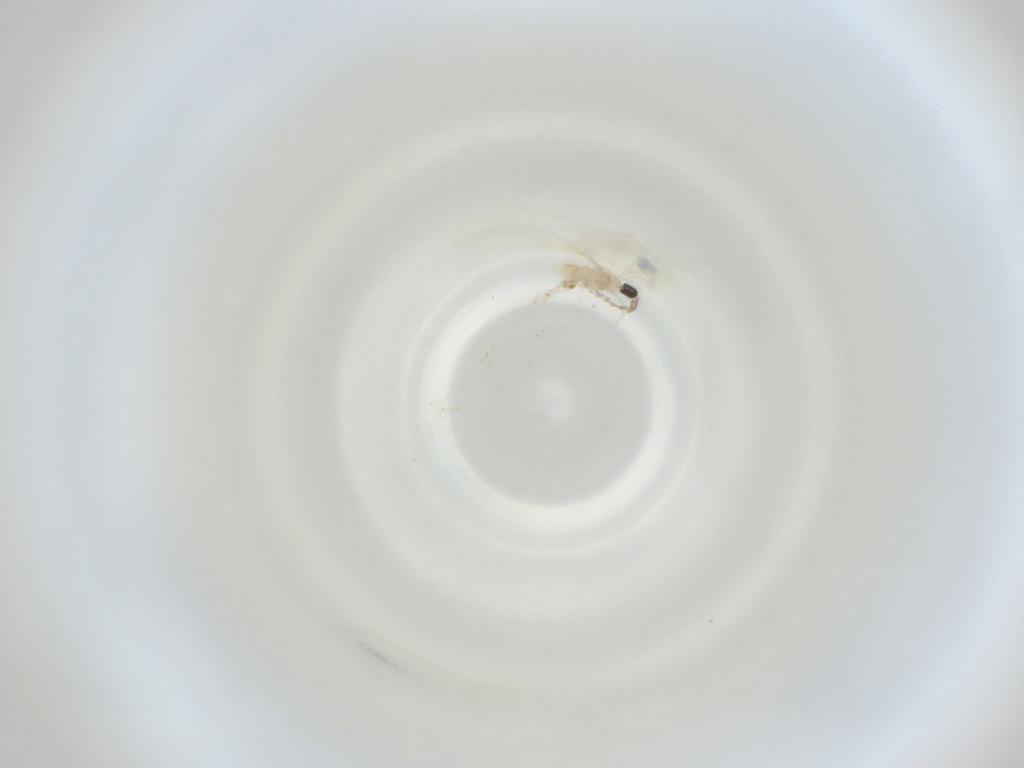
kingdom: Animalia
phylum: Arthropoda
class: Insecta
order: Diptera
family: Cecidomyiidae
